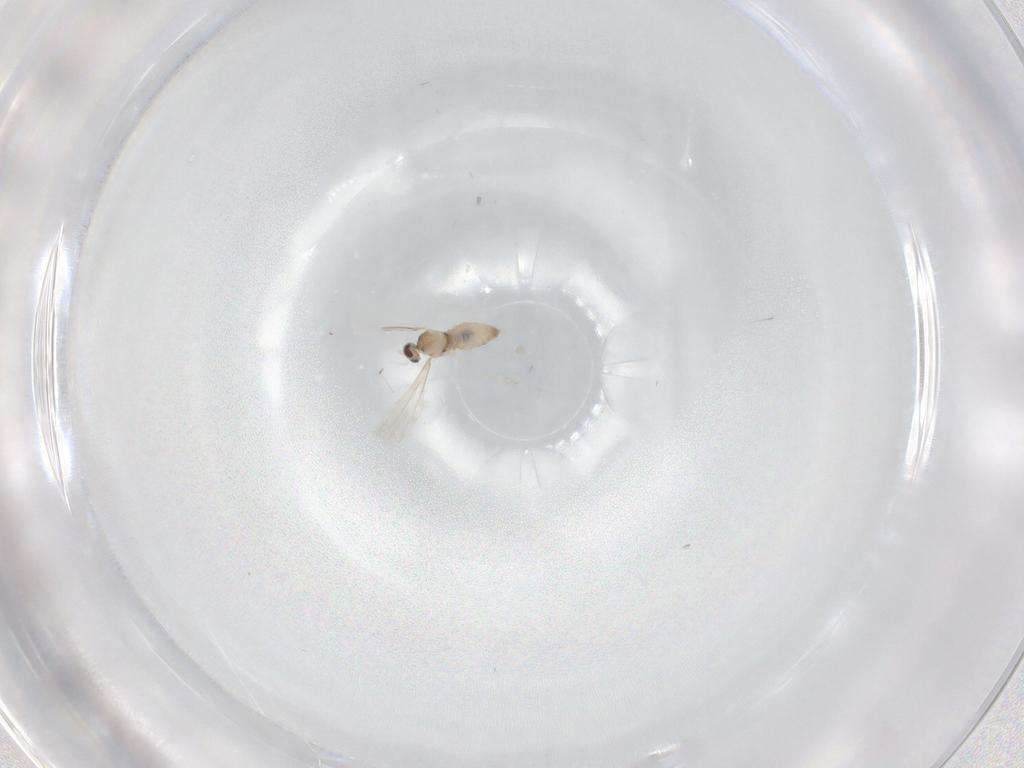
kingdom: Animalia
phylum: Arthropoda
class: Insecta
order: Diptera
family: Cecidomyiidae
